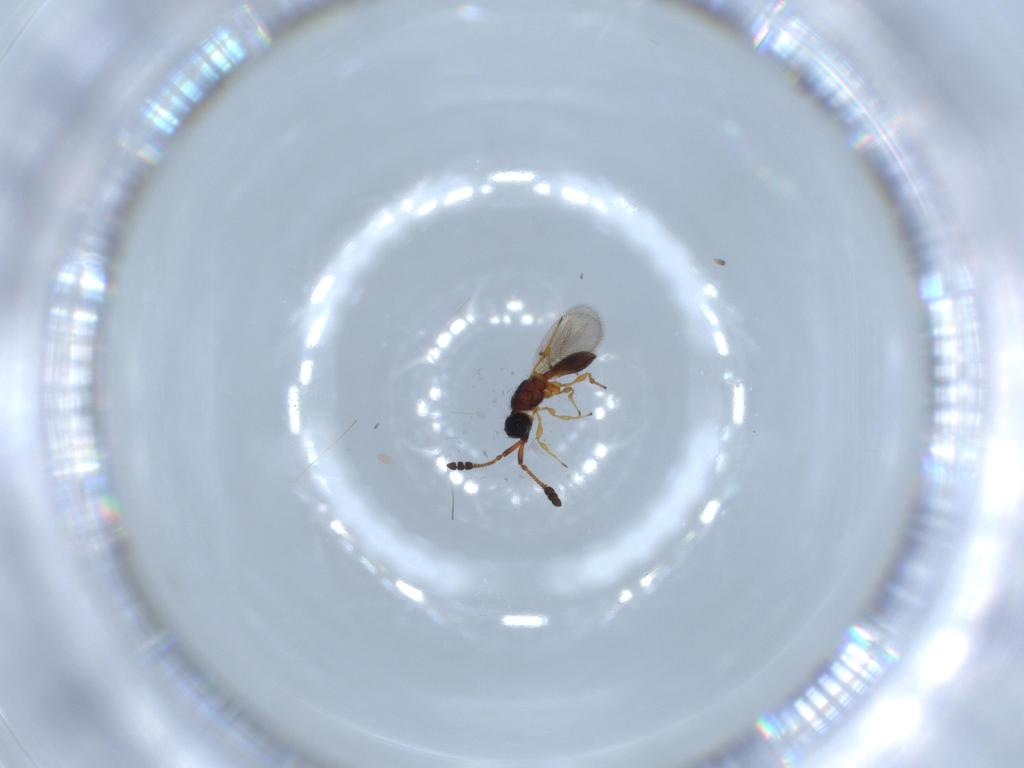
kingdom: Animalia
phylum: Arthropoda
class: Insecta
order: Hymenoptera
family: Diapriidae
